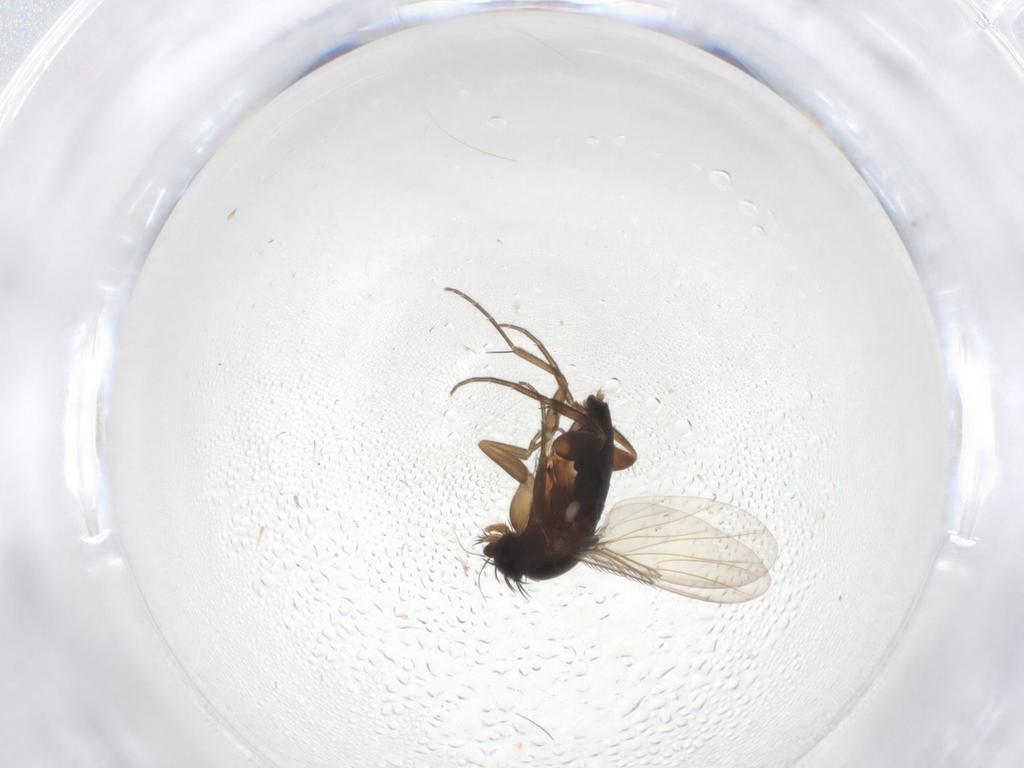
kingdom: Animalia
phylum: Arthropoda
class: Insecta
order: Diptera
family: Phoridae
